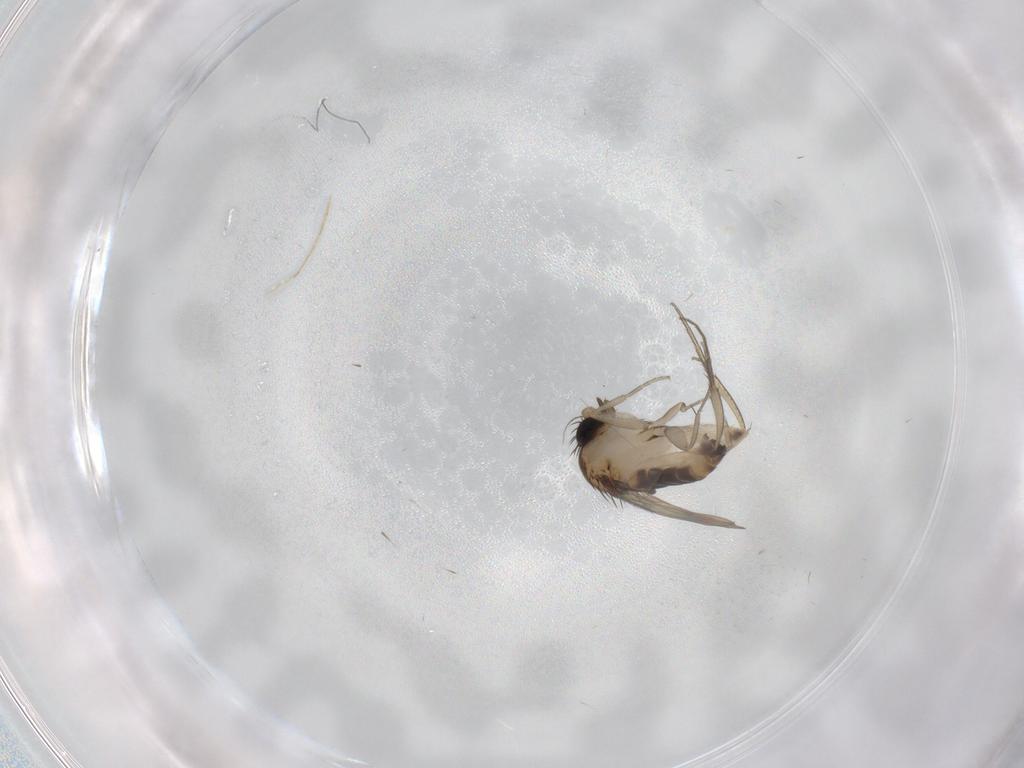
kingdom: Animalia
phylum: Arthropoda
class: Insecta
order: Diptera
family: Phoridae
